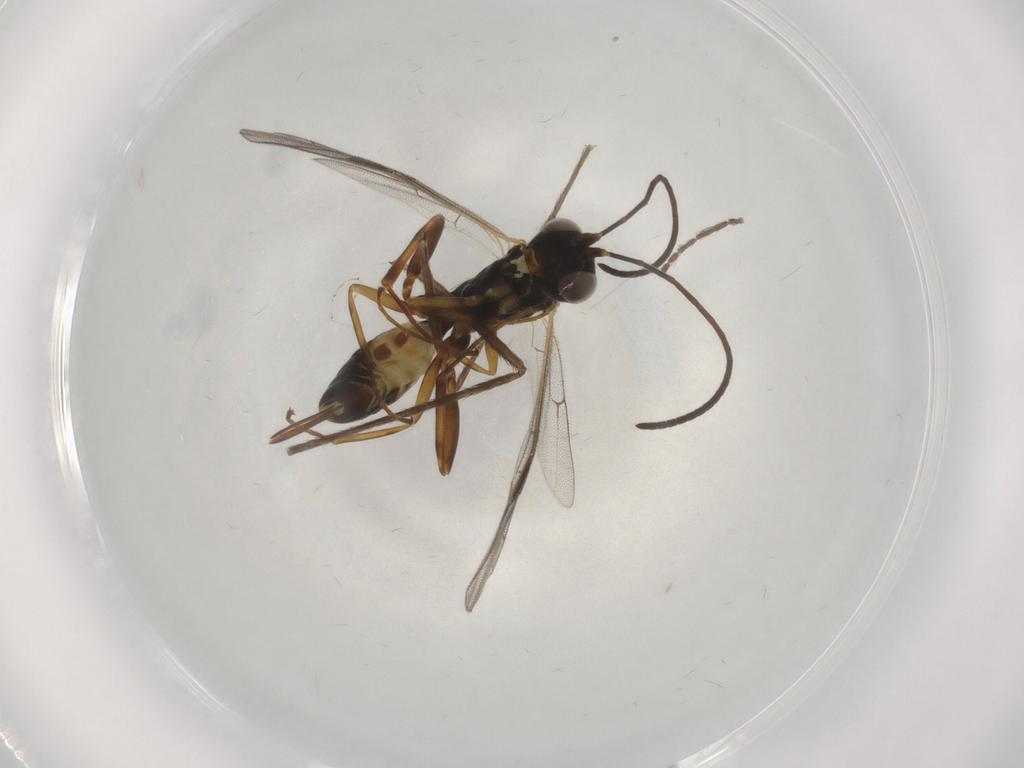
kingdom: Animalia
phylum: Arthropoda
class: Insecta
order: Hymenoptera
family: Ichneumonidae
